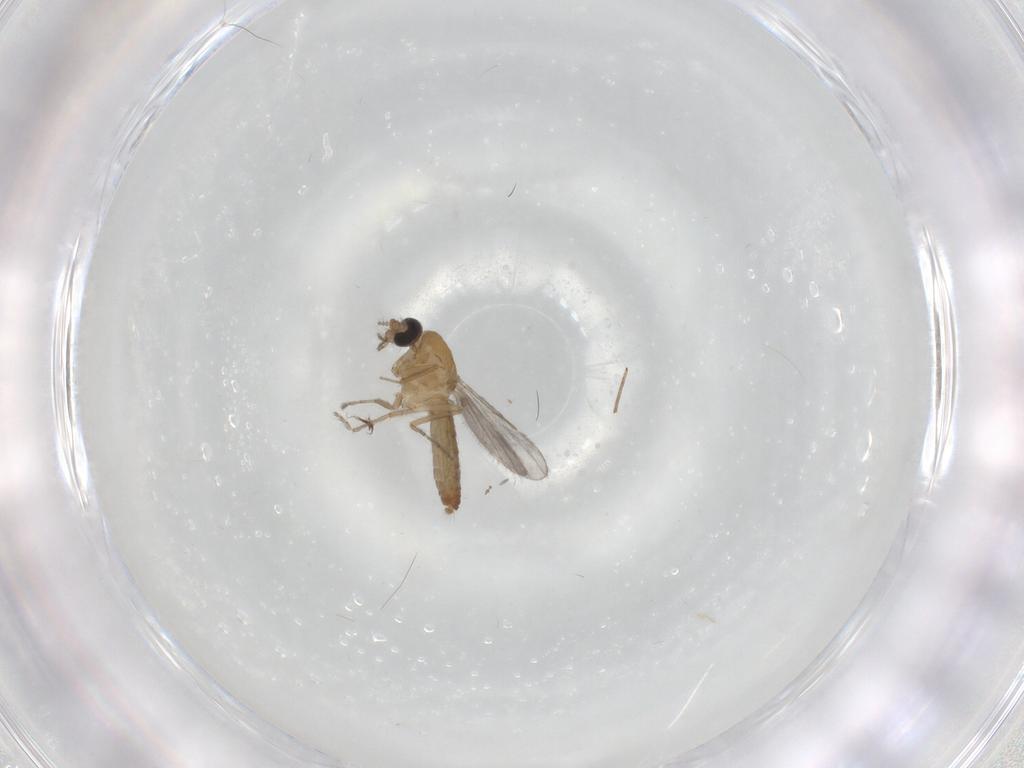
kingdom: Animalia
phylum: Arthropoda
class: Insecta
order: Diptera
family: Ceratopogonidae
